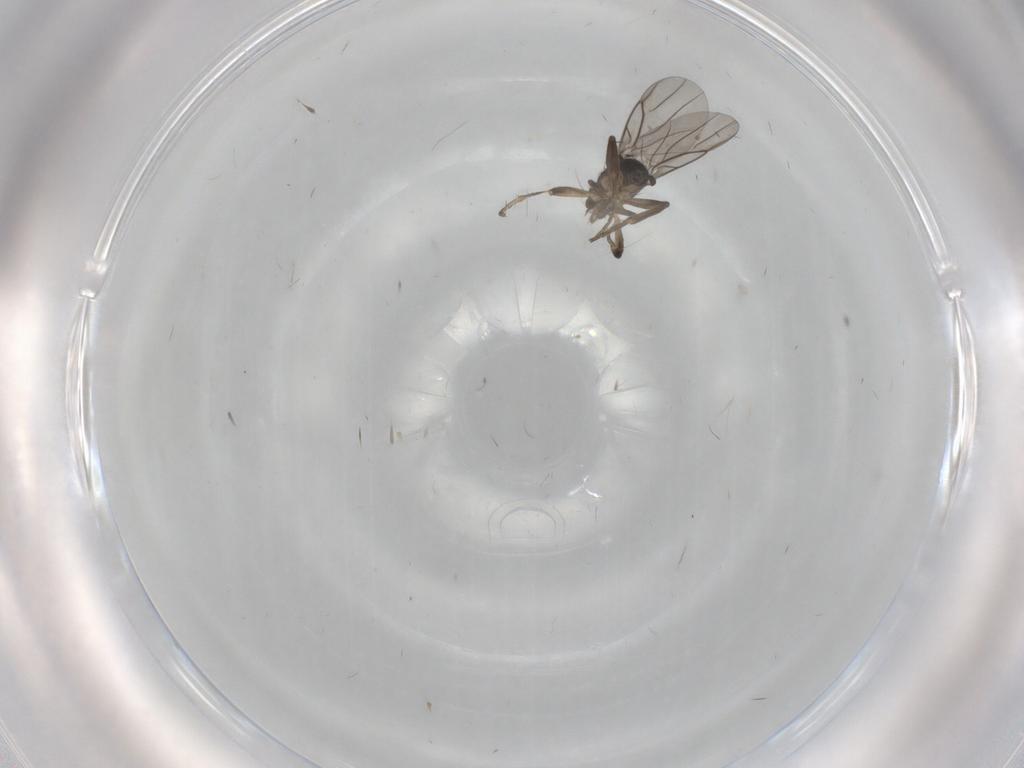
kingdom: Animalia
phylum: Arthropoda
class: Insecta
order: Diptera
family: Phoridae
